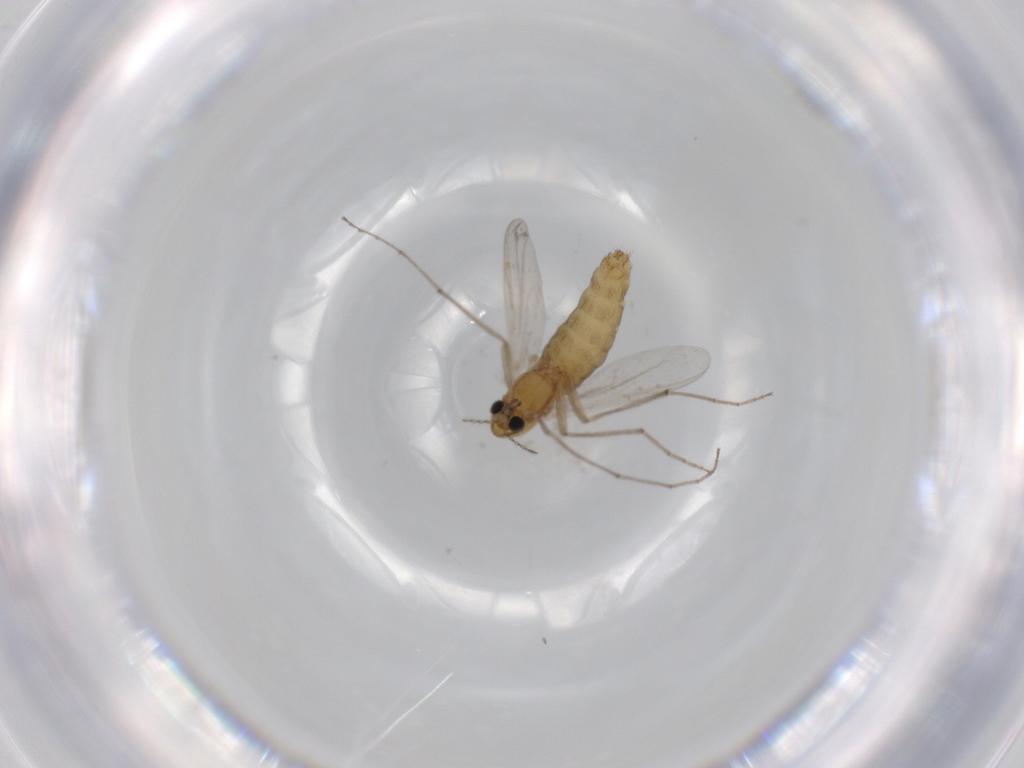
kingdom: Animalia
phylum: Arthropoda
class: Insecta
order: Diptera
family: Chironomidae
